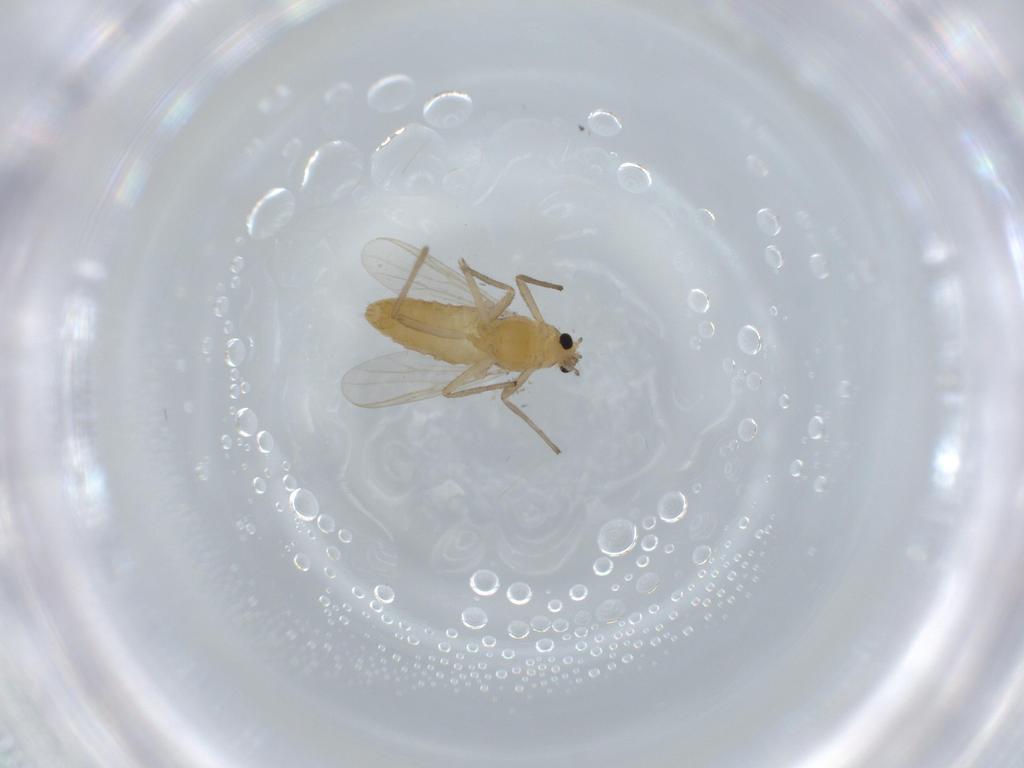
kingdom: Animalia
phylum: Arthropoda
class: Insecta
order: Diptera
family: Chironomidae
